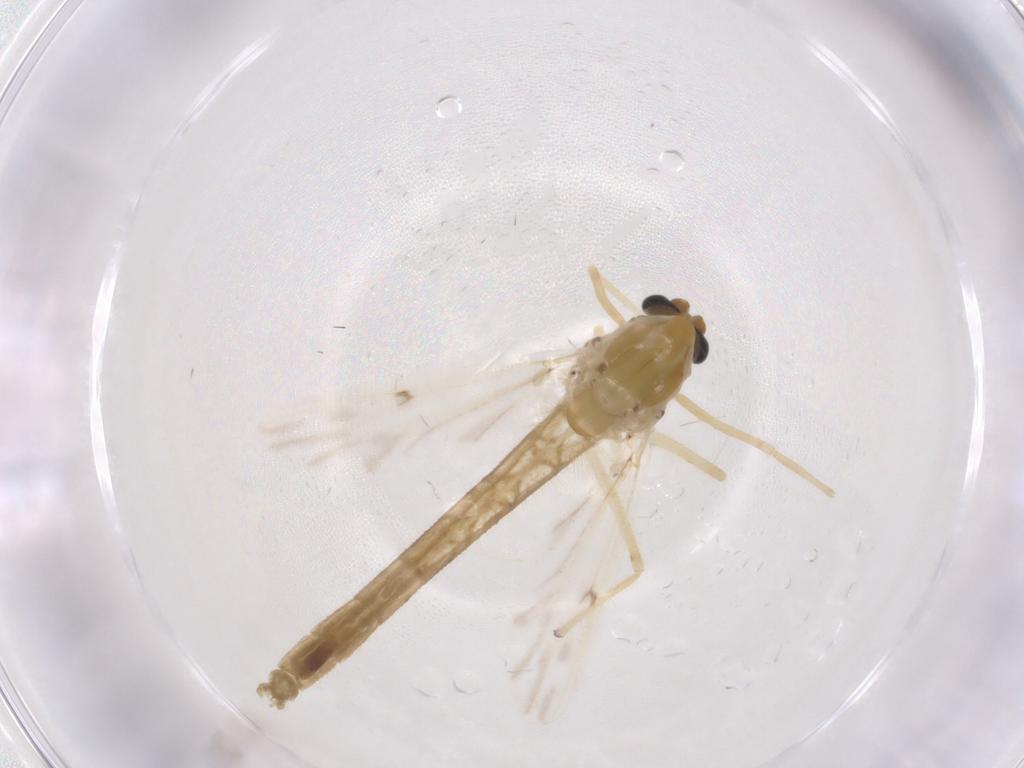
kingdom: Animalia
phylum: Arthropoda
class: Insecta
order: Diptera
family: Chironomidae
